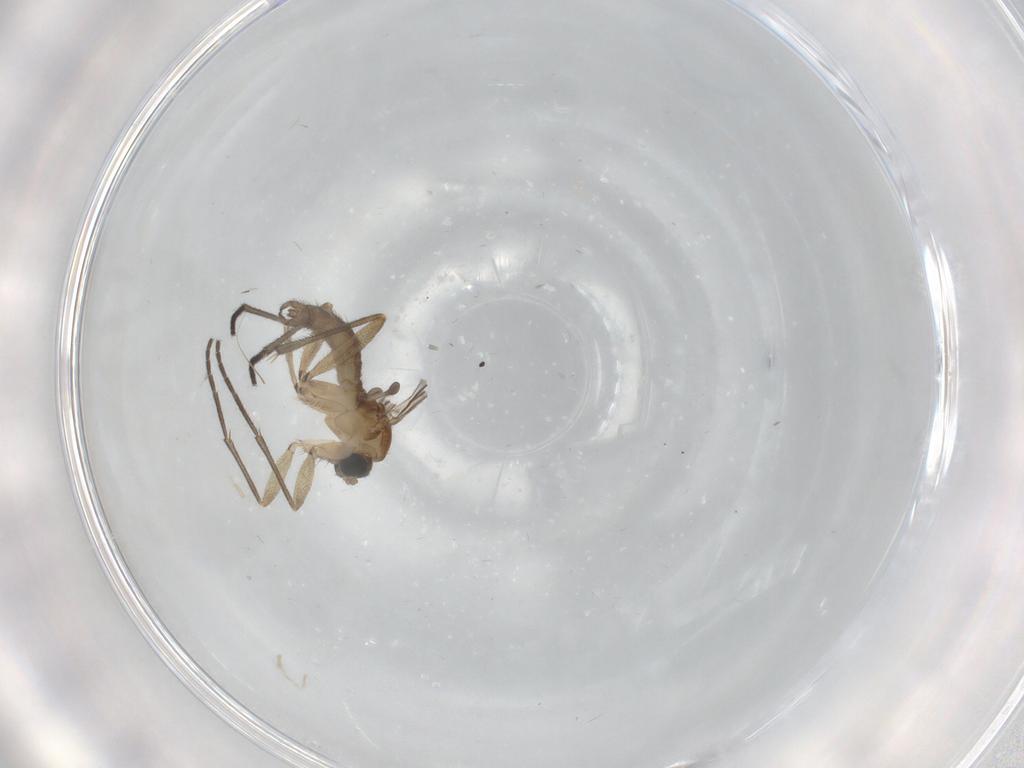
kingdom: Animalia
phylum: Arthropoda
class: Insecta
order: Diptera
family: Sciaridae
